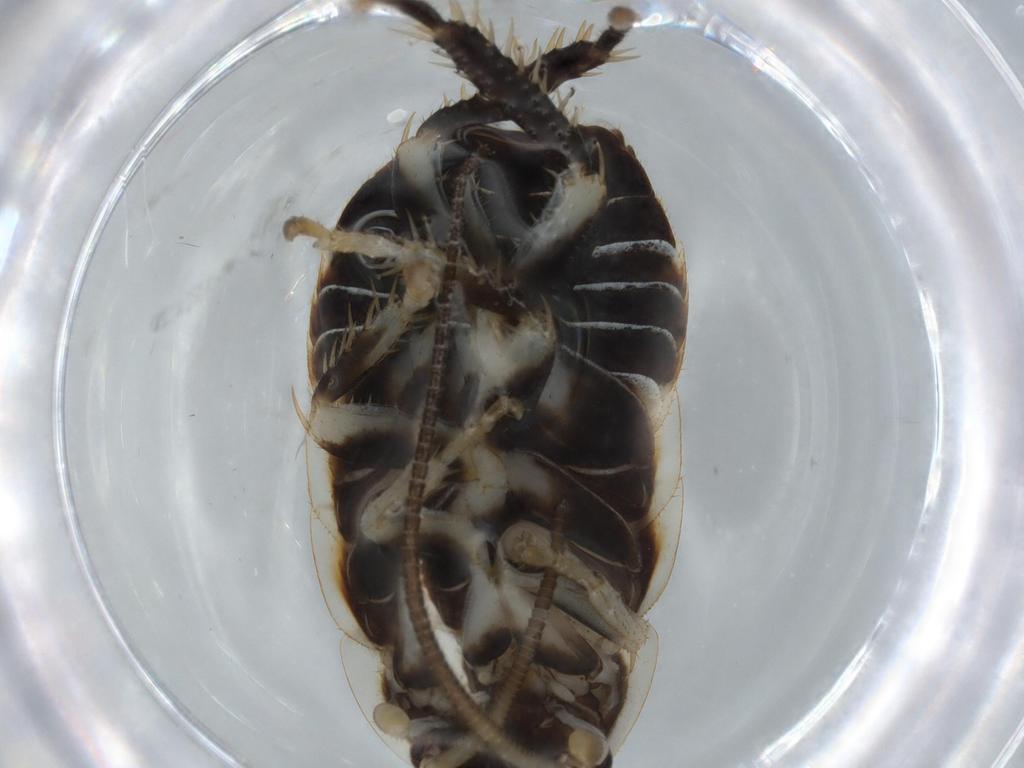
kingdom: Animalia
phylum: Arthropoda
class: Insecta
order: Blattodea
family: Ectobiidae
